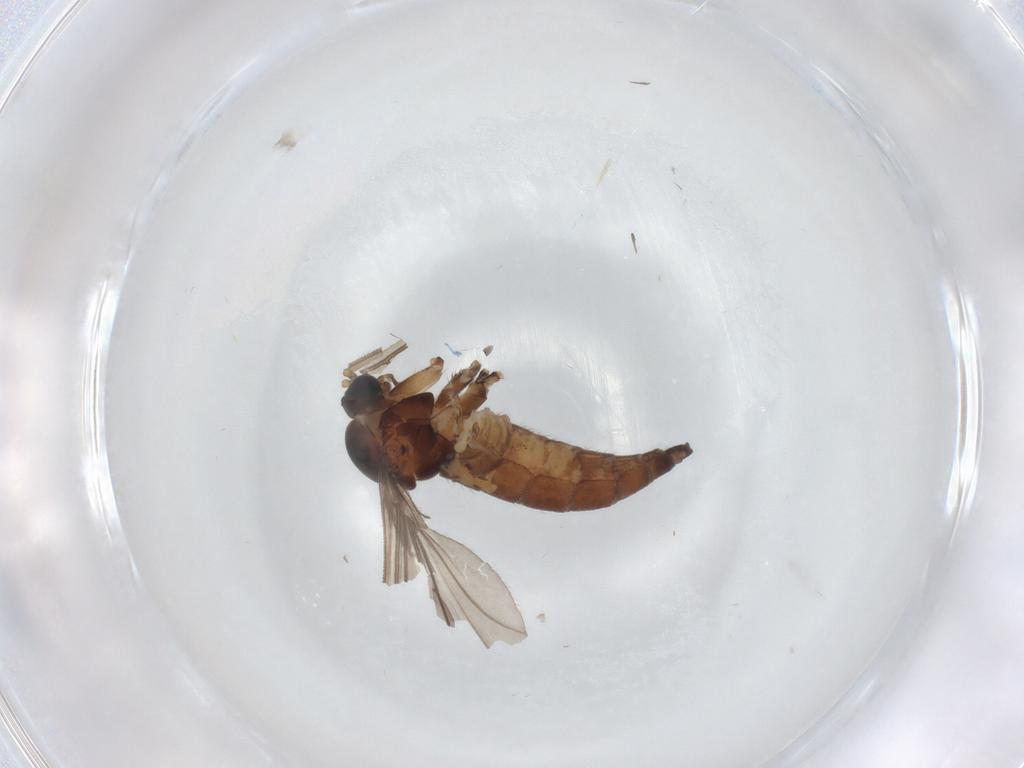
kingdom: Animalia
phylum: Arthropoda
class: Insecta
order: Diptera
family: Sciaridae
